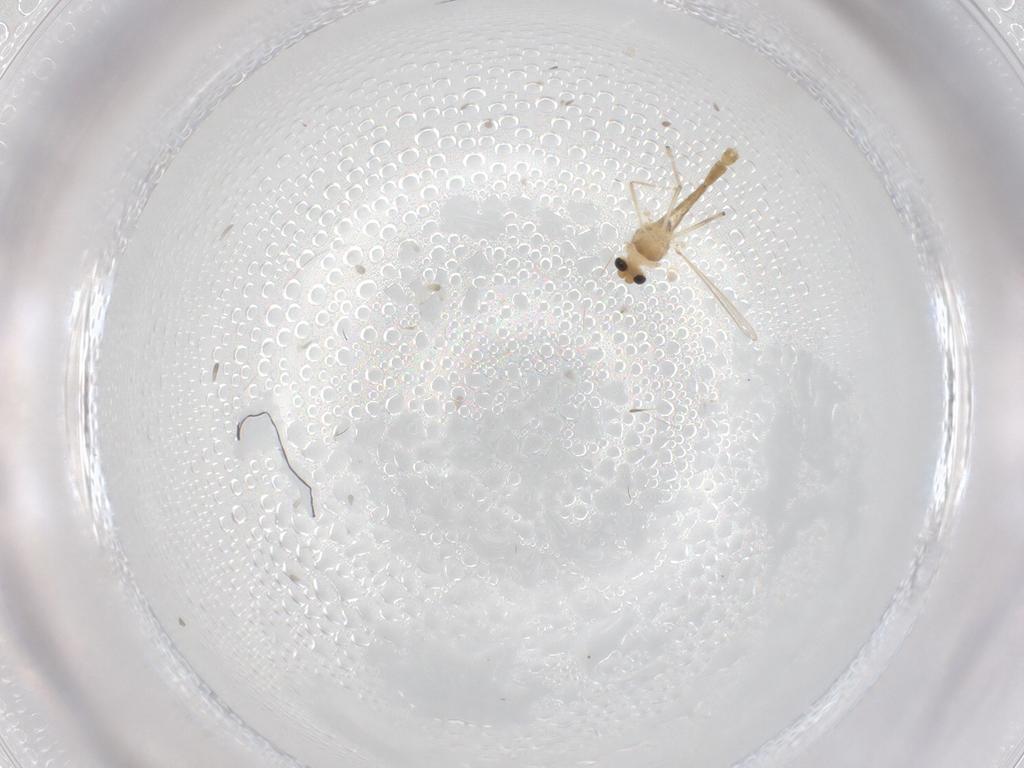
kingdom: Animalia
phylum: Arthropoda
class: Insecta
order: Diptera
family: Chironomidae
